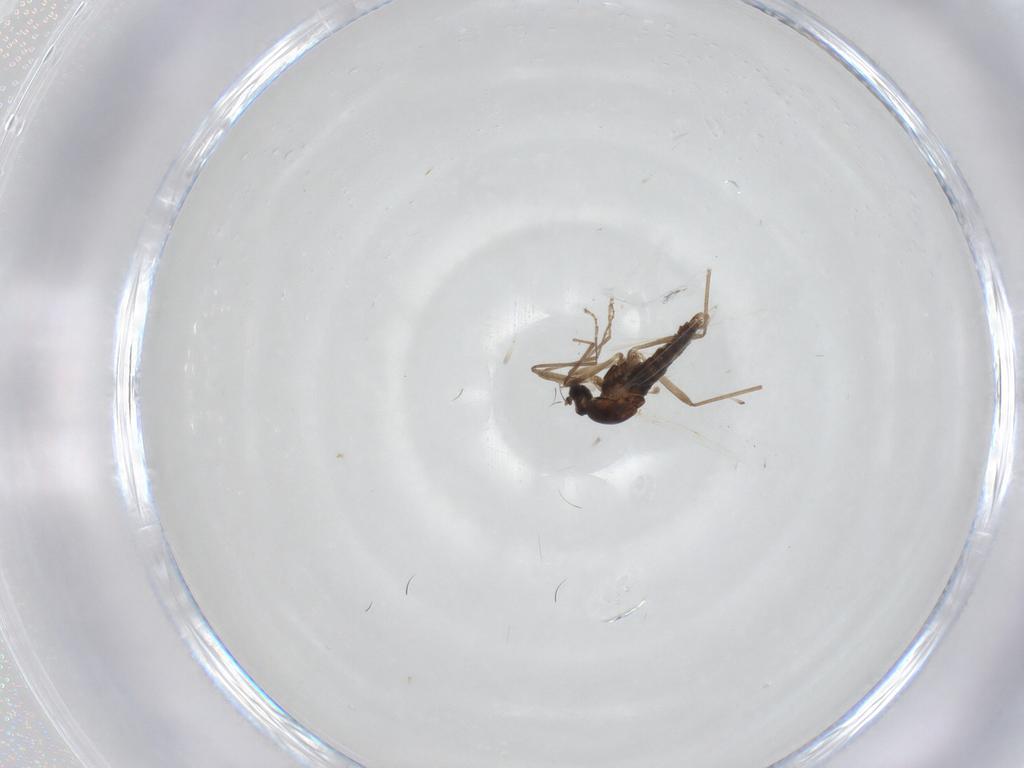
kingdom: Animalia
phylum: Arthropoda
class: Insecta
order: Diptera
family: Cecidomyiidae
